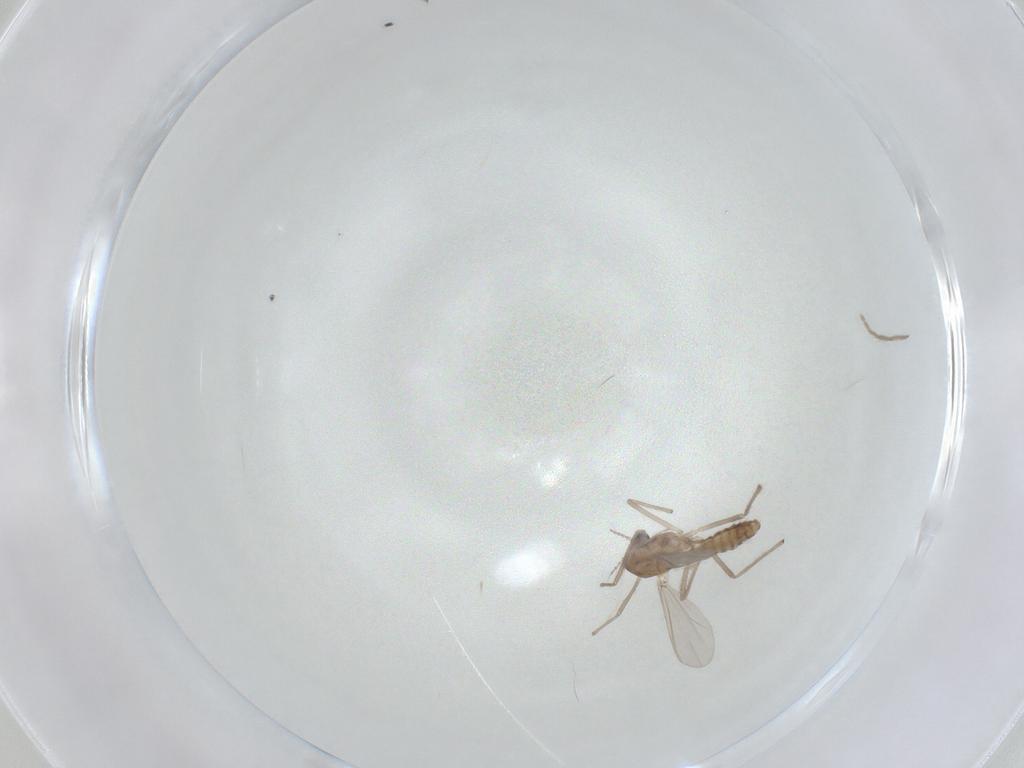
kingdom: Animalia
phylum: Arthropoda
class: Insecta
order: Diptera
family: Chironomidae
